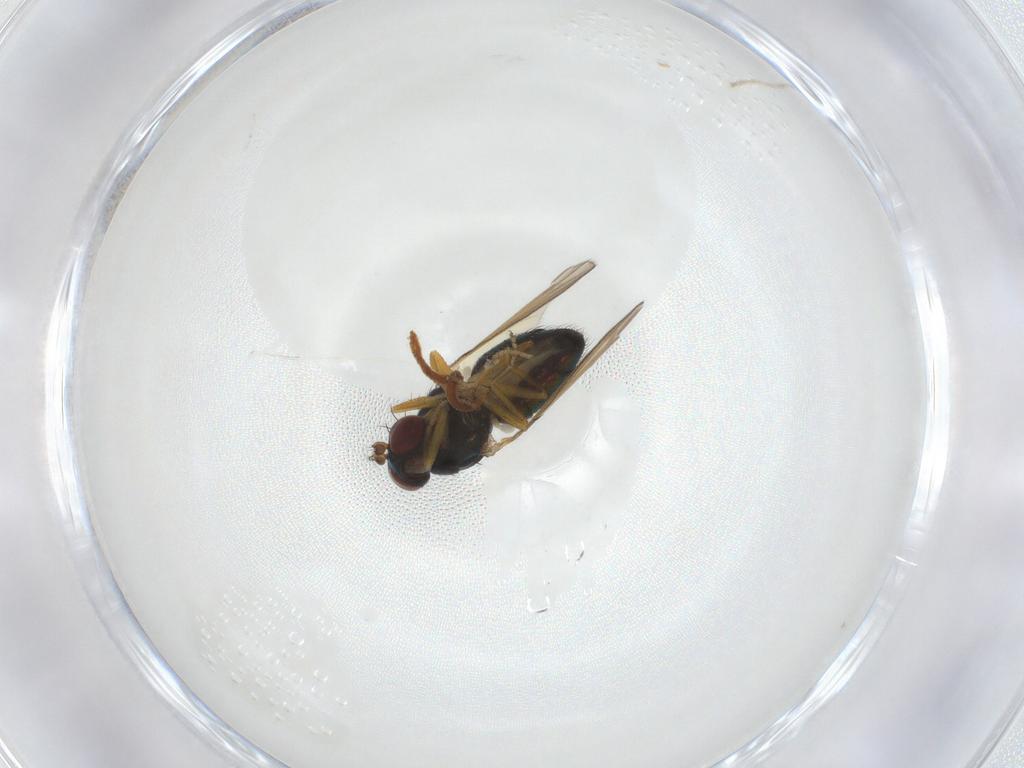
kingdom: Animalia
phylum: Arthropoda
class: Insecta
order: Diptera
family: Ephydridae
